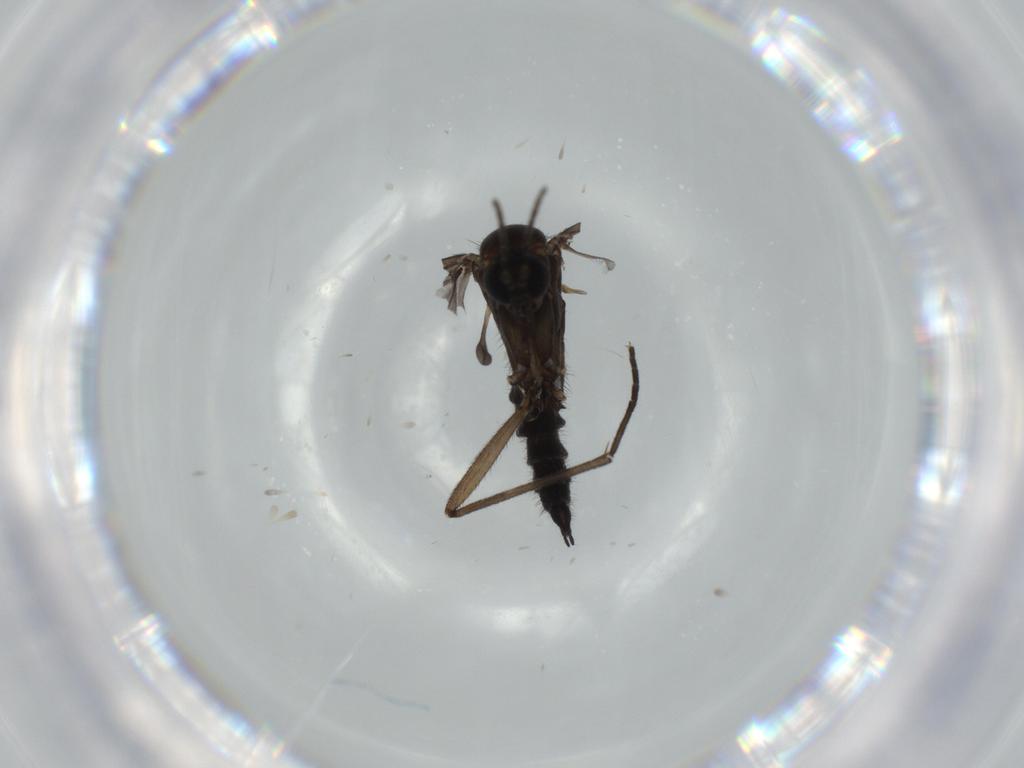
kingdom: Animalia
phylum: Arthropoda
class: Insecta
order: Diptera
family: Sciaridae
